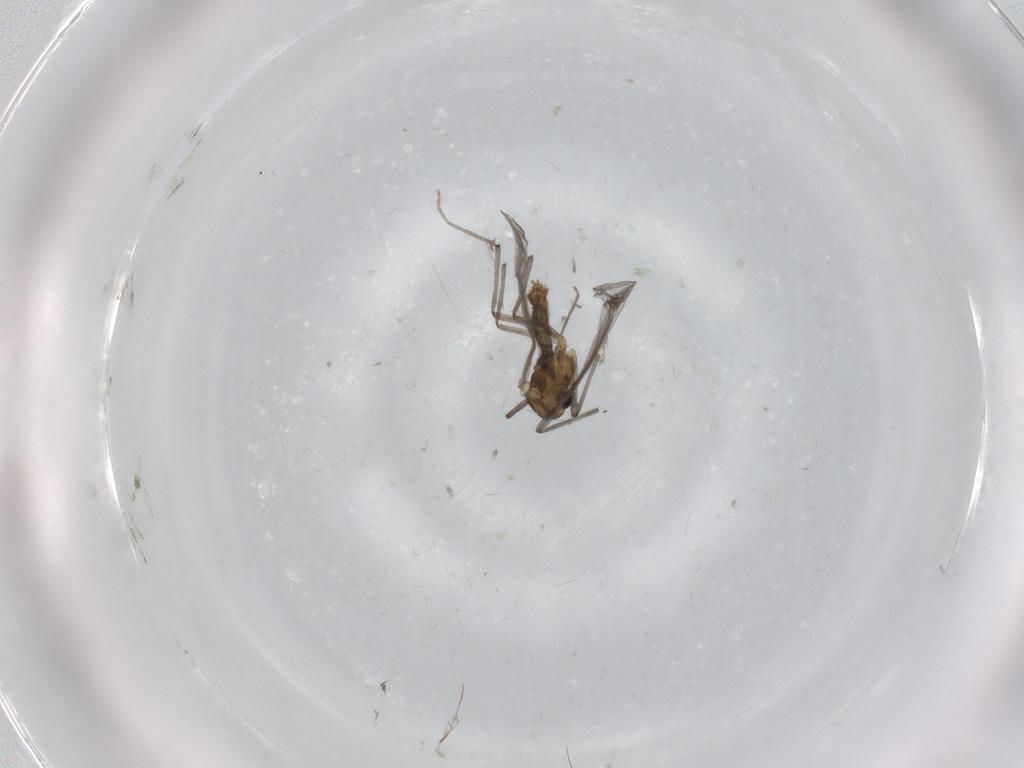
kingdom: Animalia
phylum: Arthropoda
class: Insecta
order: Diptera
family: Chironomidae
